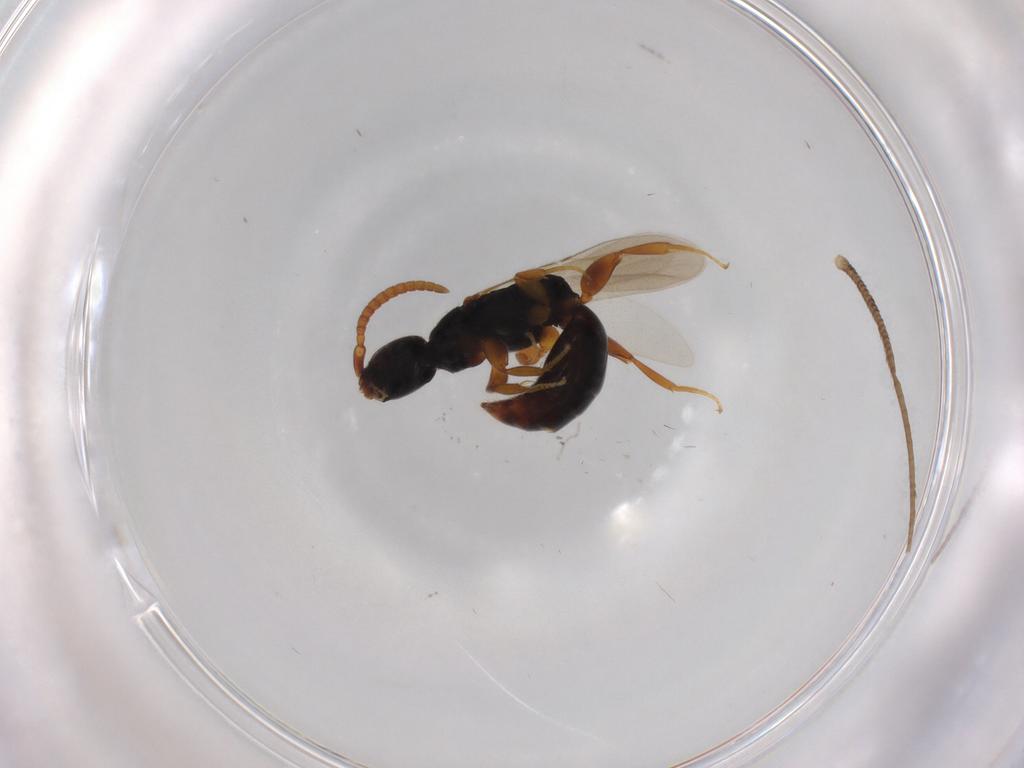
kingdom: Animalia
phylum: Arthropoda
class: Insecta
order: Hymenoptera
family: Bethylidae
